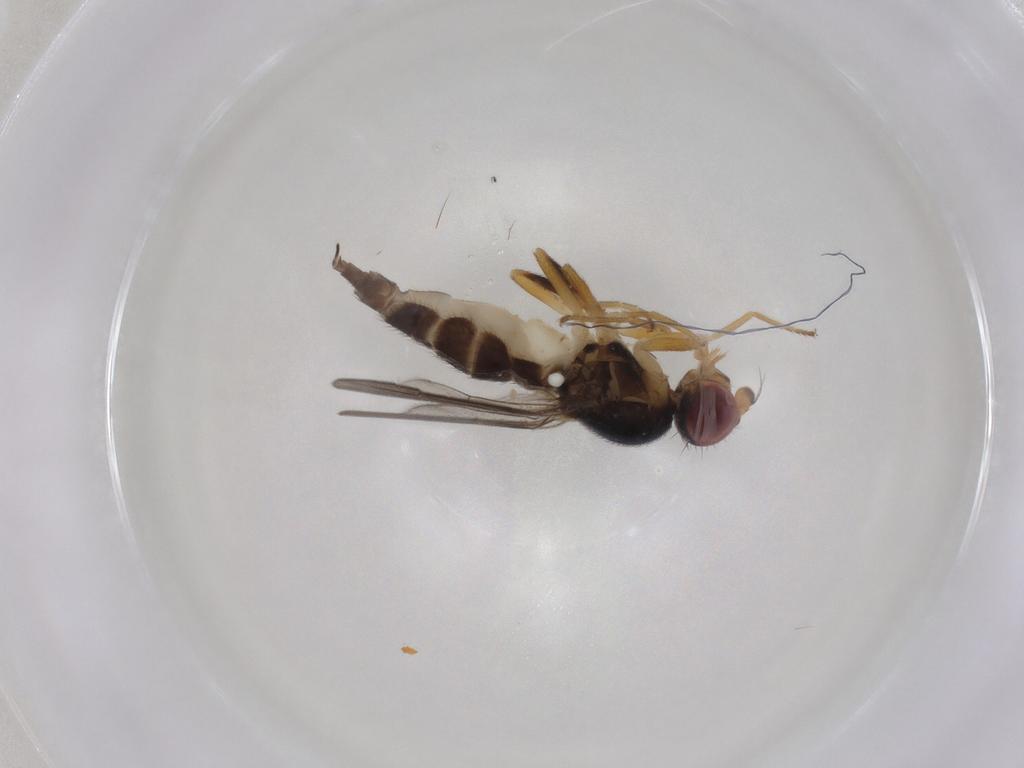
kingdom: Animalia
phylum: Arthropoda
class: Insecta
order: Diptera
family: Chloropidae
